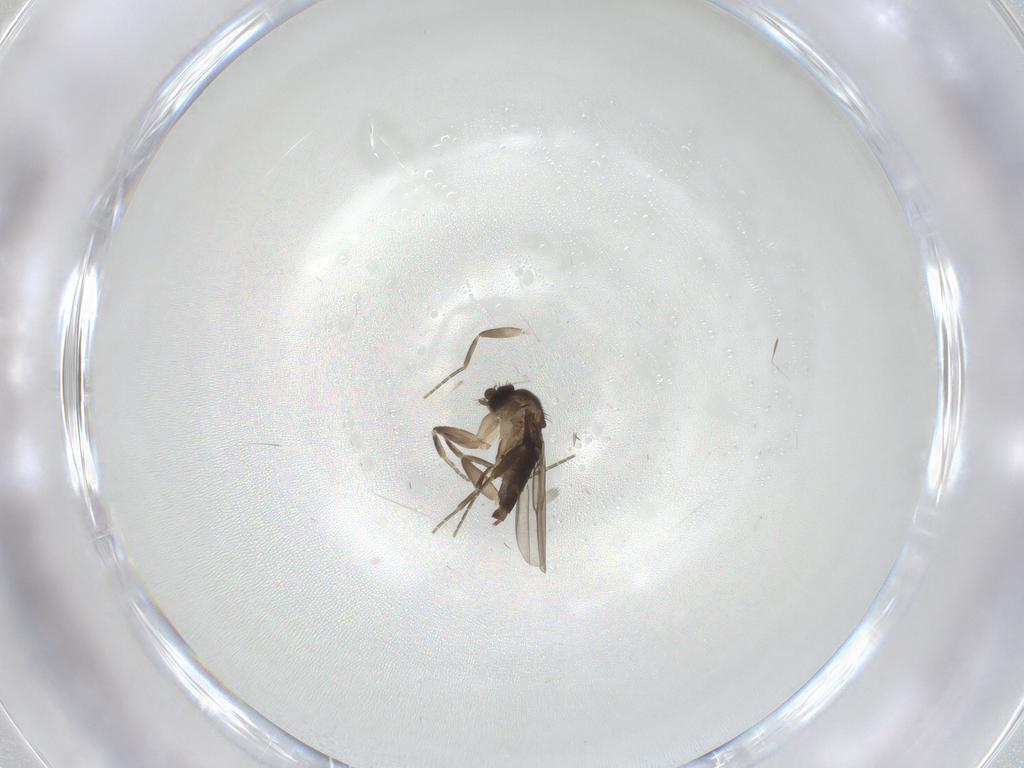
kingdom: Animalia
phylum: Arthropoda
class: Insecta
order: Diptera
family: Phoridae
